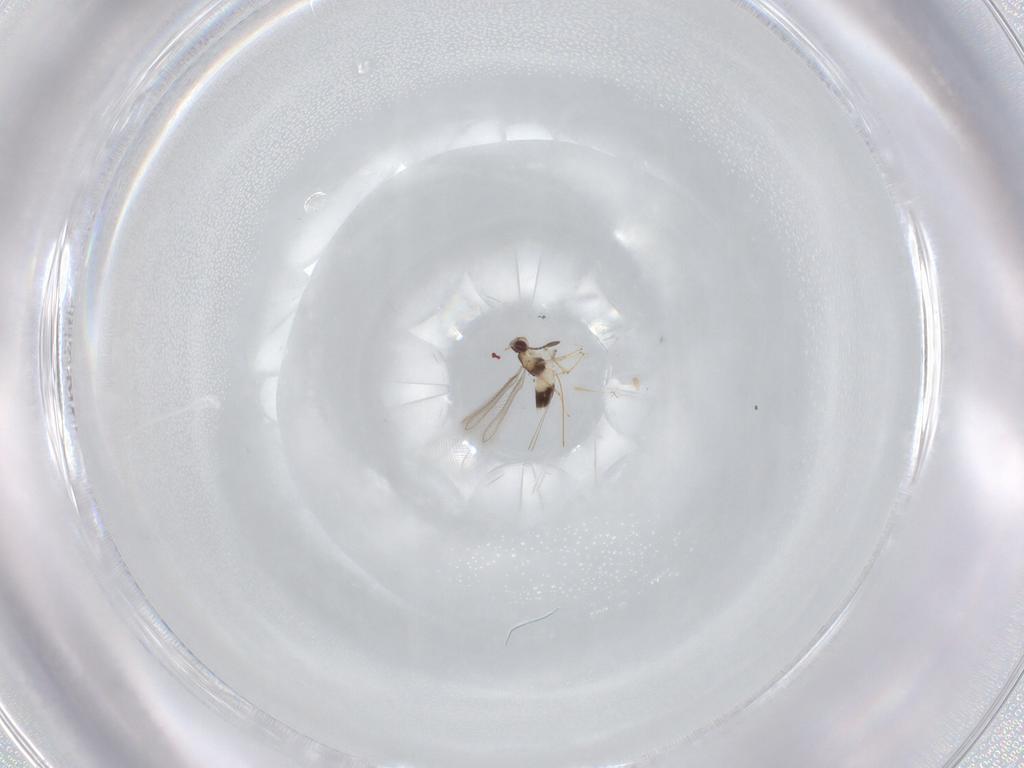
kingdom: Animalia
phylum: Arthropoda
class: Insecta
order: Hymenoptera
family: Mymaridae
